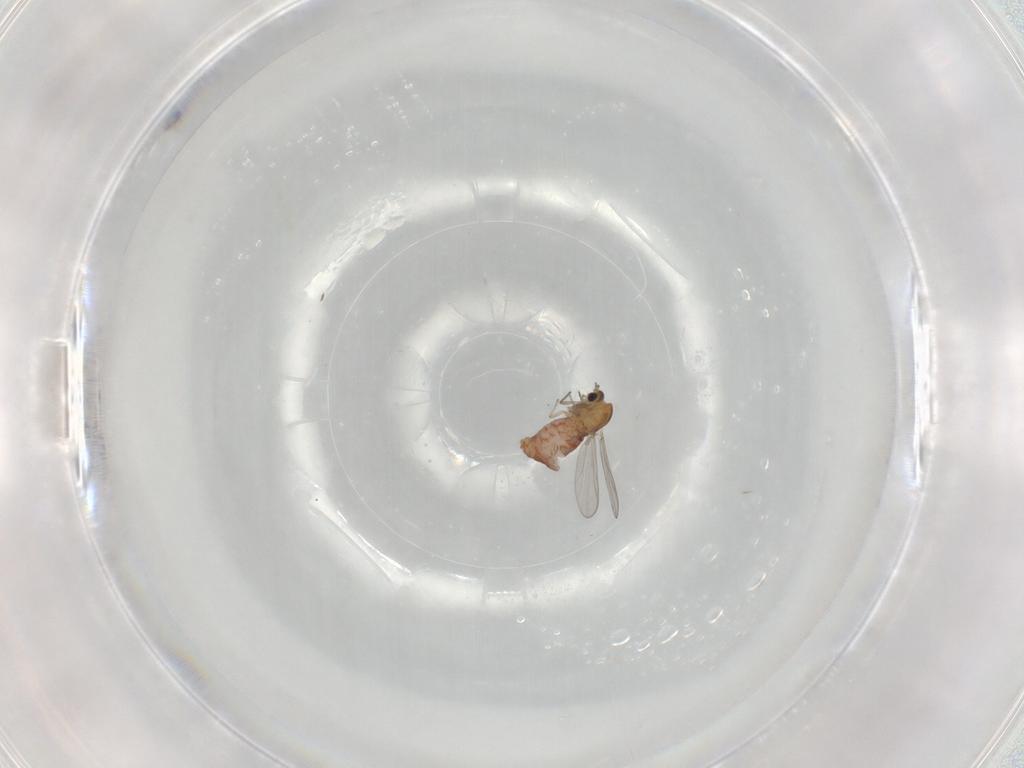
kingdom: Animalia
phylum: Arthropoda
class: Insecta
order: Diptera
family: Chironomidae
